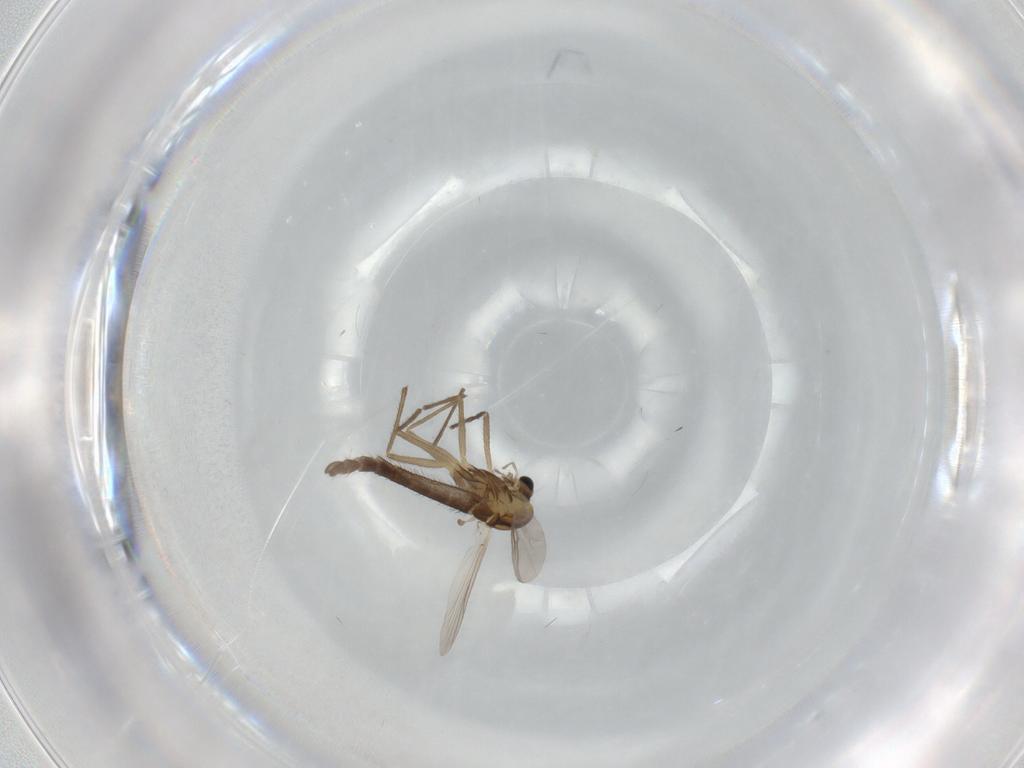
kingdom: Animalia
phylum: Arthropoda
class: Insecta
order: Diptera
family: Chironomidae
